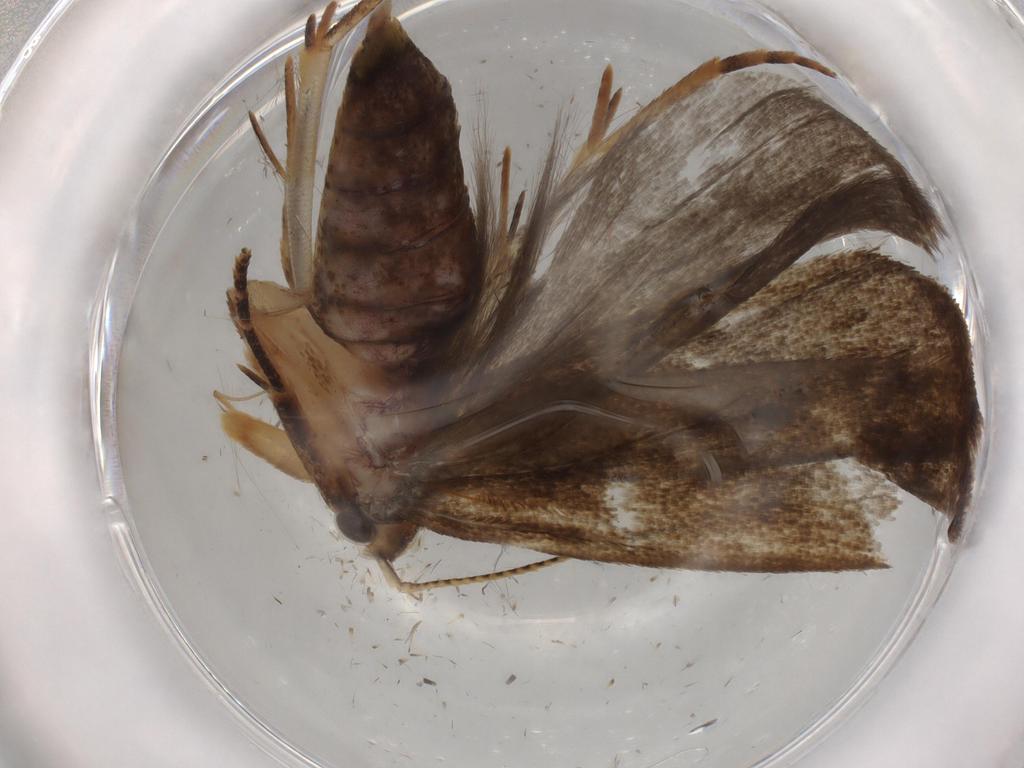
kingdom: Animalia
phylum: Arthropoda
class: Insecta
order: Lepidoptera
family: Gelechiidae
